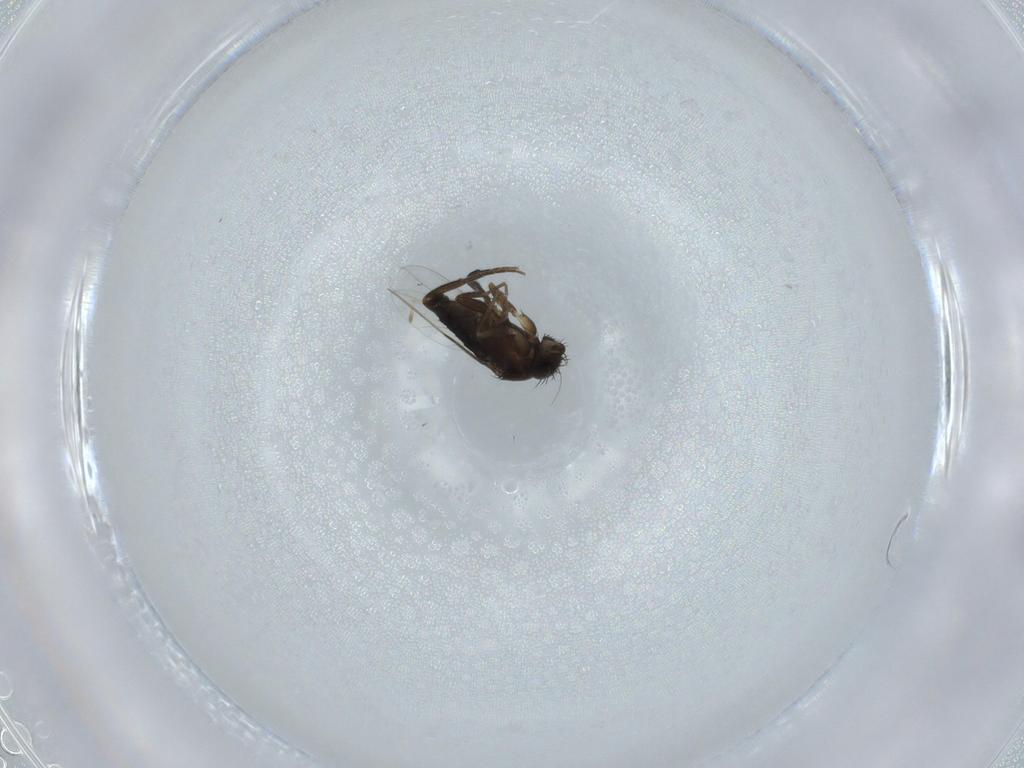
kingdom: Animalia
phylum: Arthropoda
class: Insecta
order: Diptera
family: Phoridae
